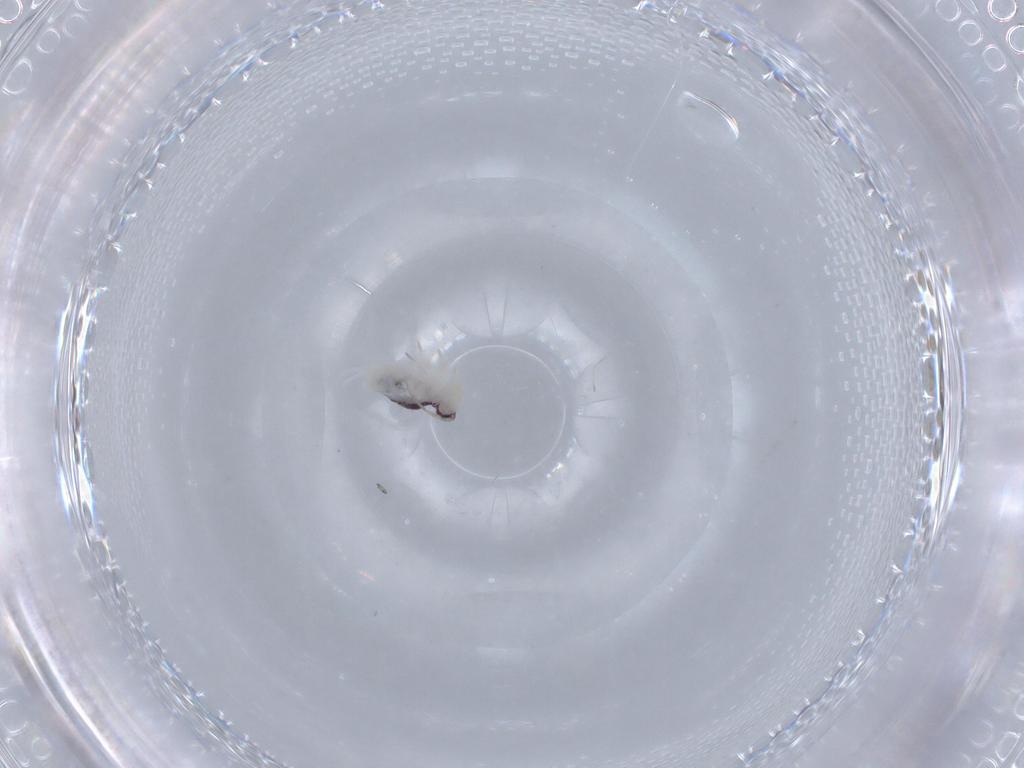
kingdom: Animalia
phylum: Arthropoda
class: Collembola
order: Symphypleona
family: Bourletiellidae
